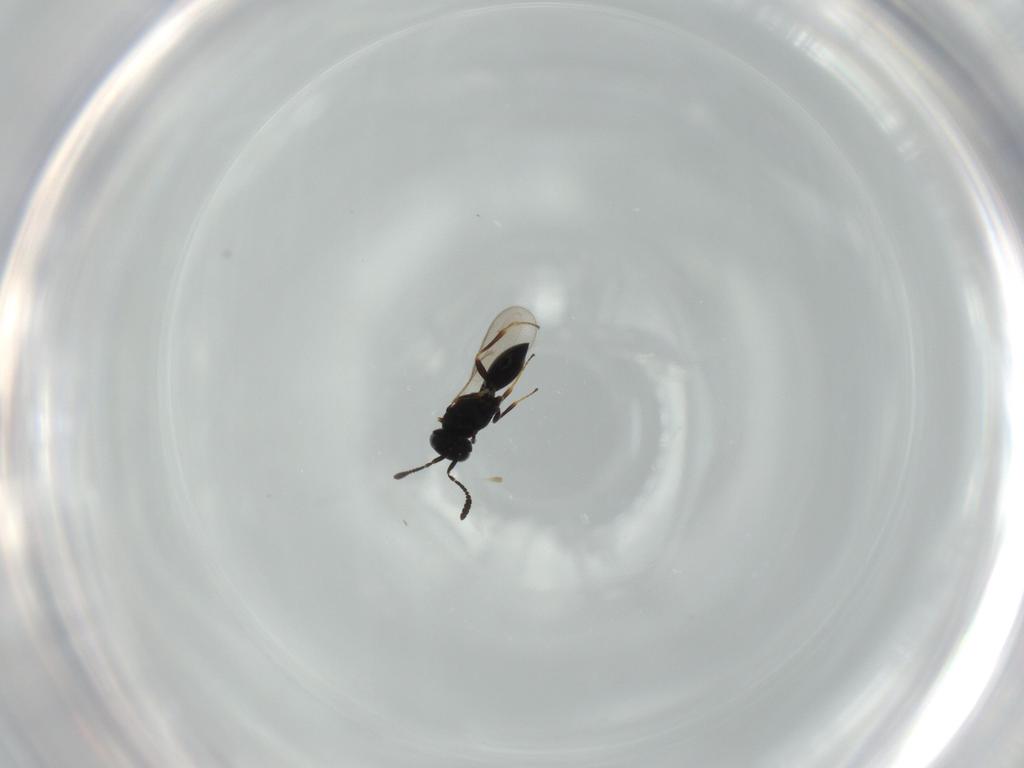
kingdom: Animalia
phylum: Arthropoda
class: Insecta
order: Hymenoptera
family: Scelionidae
